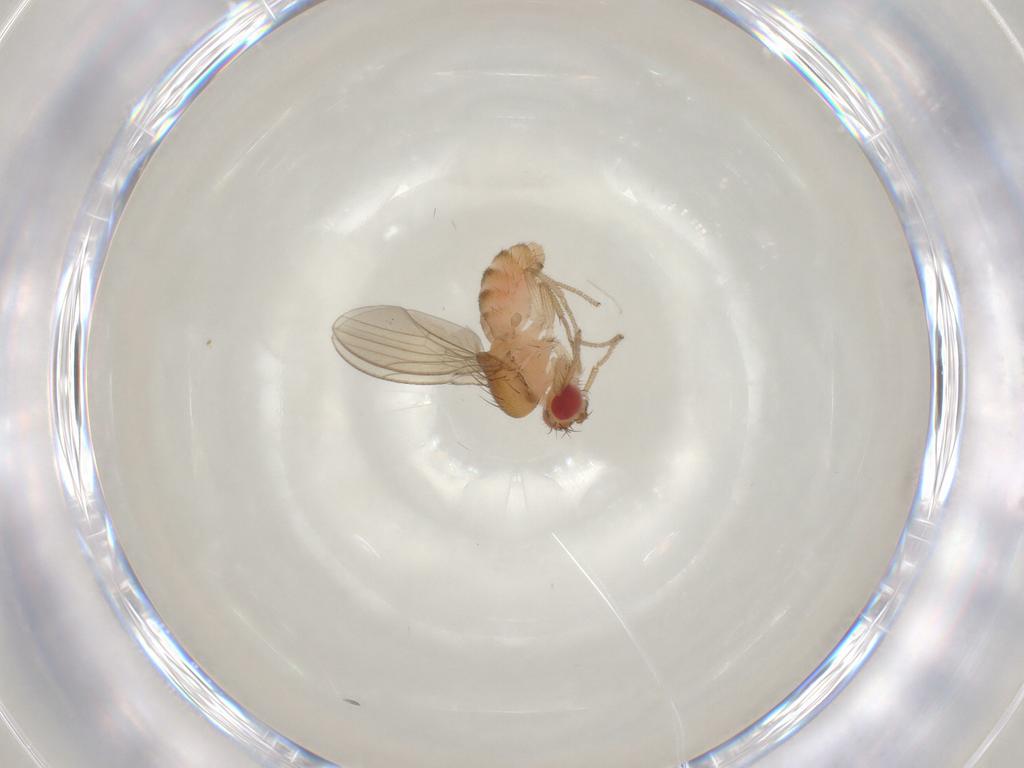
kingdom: Animalia
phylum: Arthropoda
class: Insecta
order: Diptera
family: Drosophilidae
